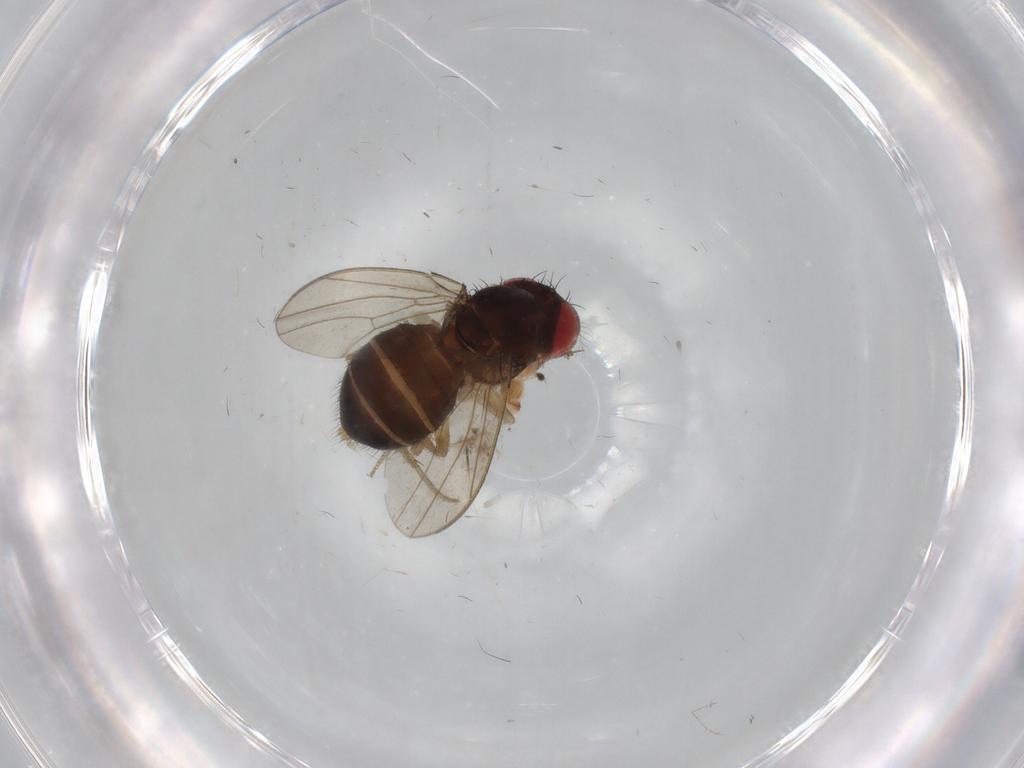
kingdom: Animalia
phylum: Arthropoda
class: Insecta
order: Diptera
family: Drosophilidae
